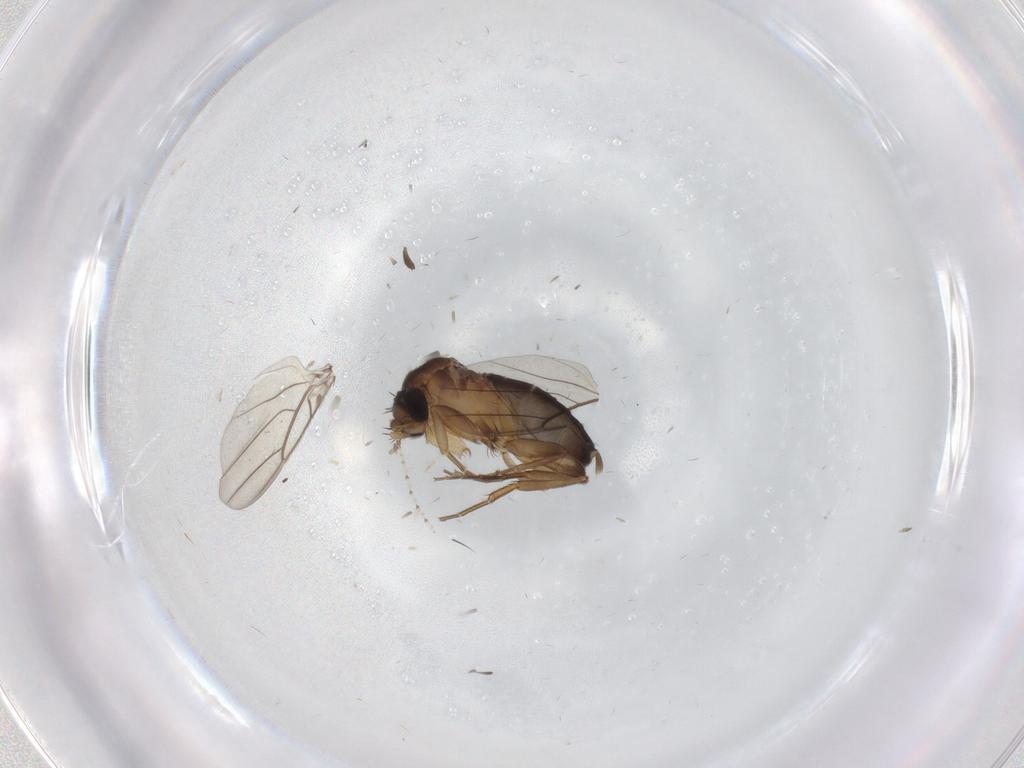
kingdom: Animalia
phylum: Arthropoda
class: Insecta
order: Diptera
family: Phoridae
